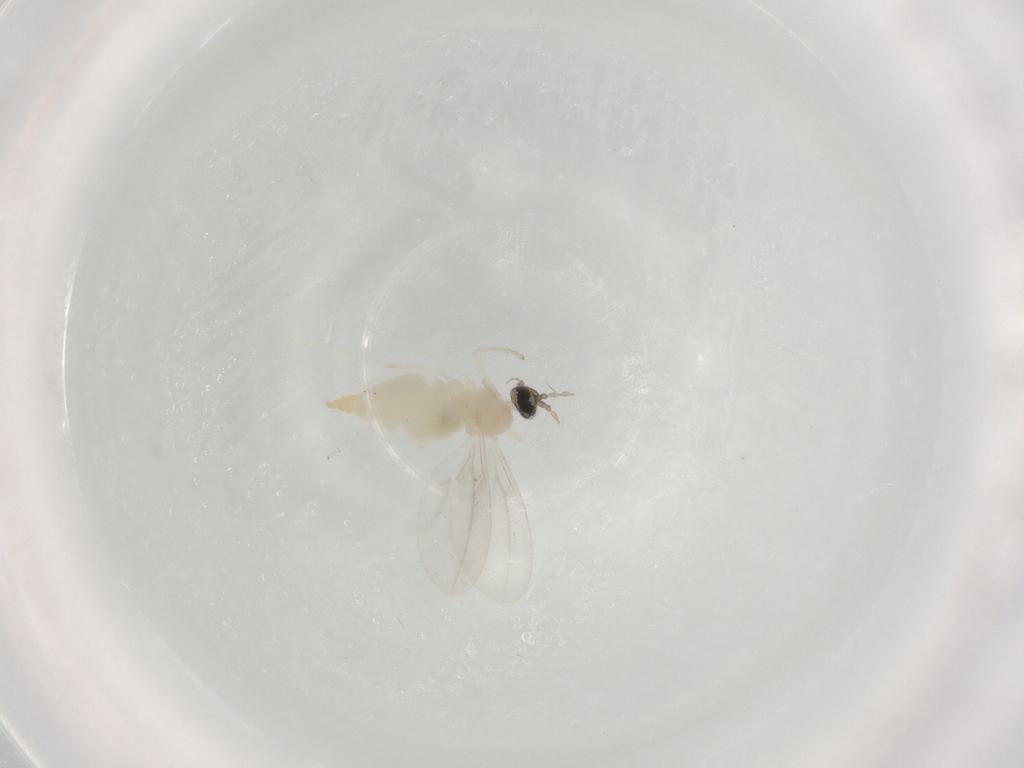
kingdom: Animalia
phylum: Arthropoda
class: Insecta
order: Diptera
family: Cecidomyiidae
